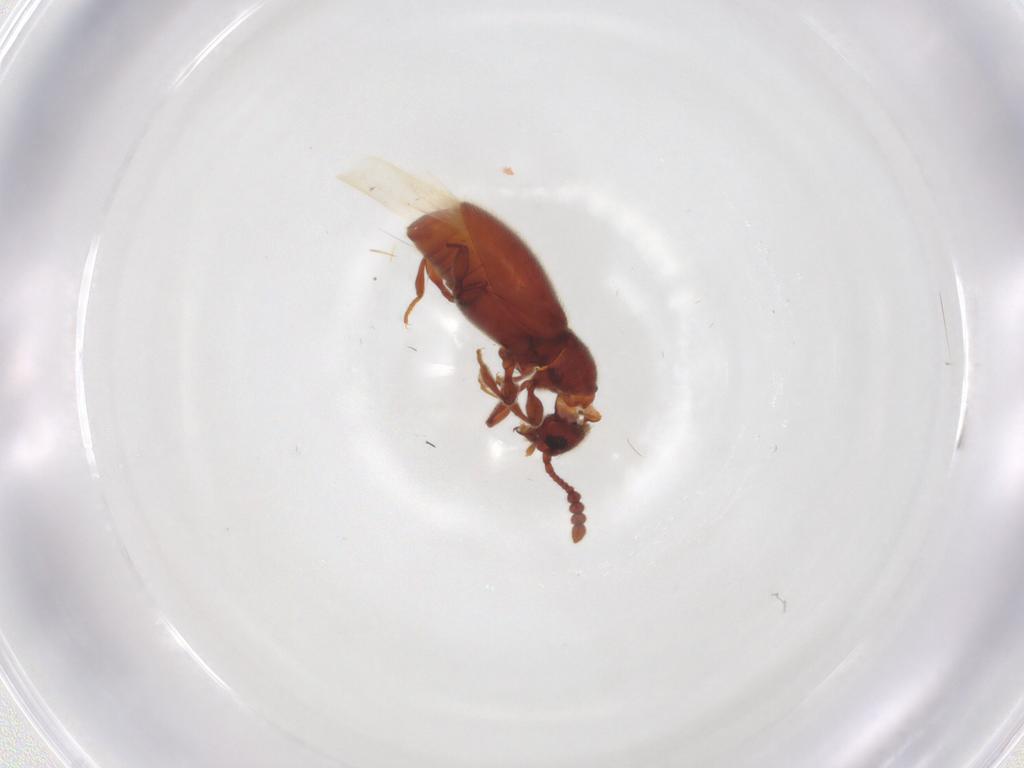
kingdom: Animalia
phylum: Arthropoda
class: Insecta
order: Coleoptera
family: Staphylinidae
